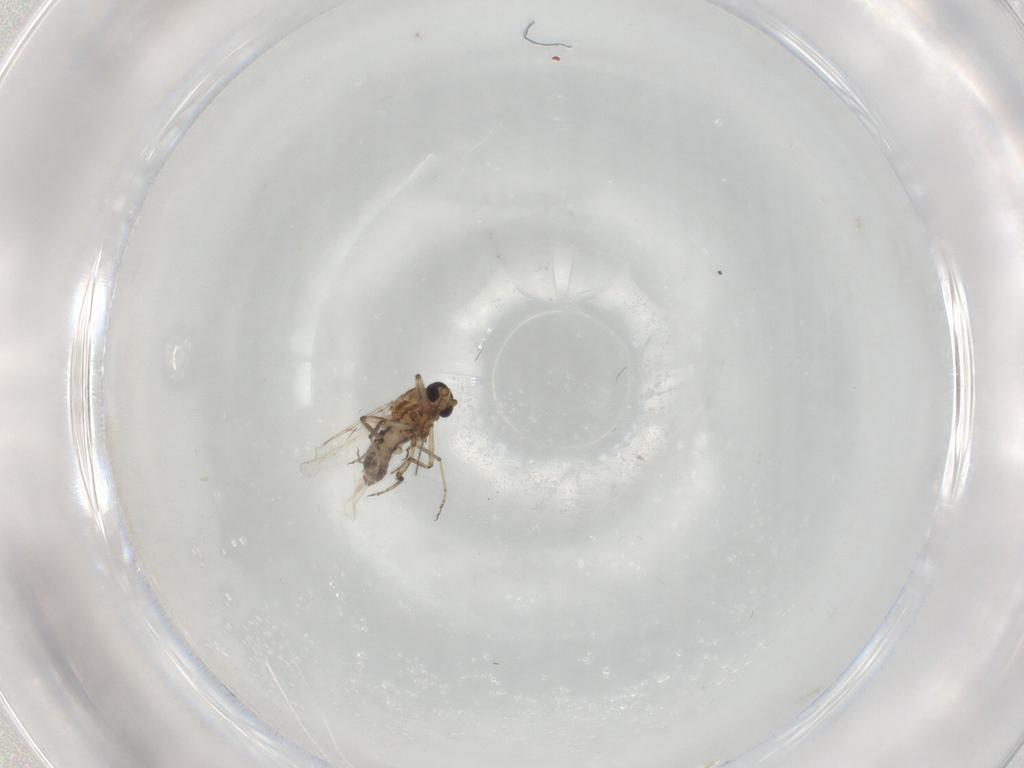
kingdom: Animalia
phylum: Arthropoda
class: Insecta
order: Diptera
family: Ceratopogonidae
